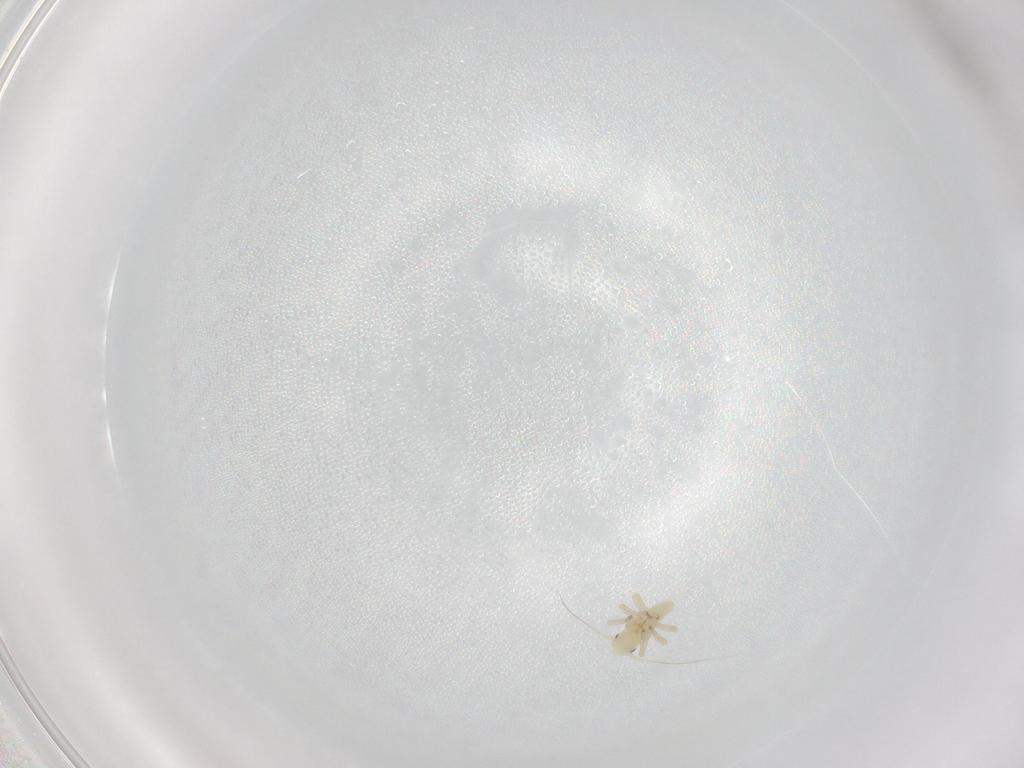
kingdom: Animalia
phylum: Arthropoda
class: Insecta
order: Hemiptera
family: Cicadellidae
